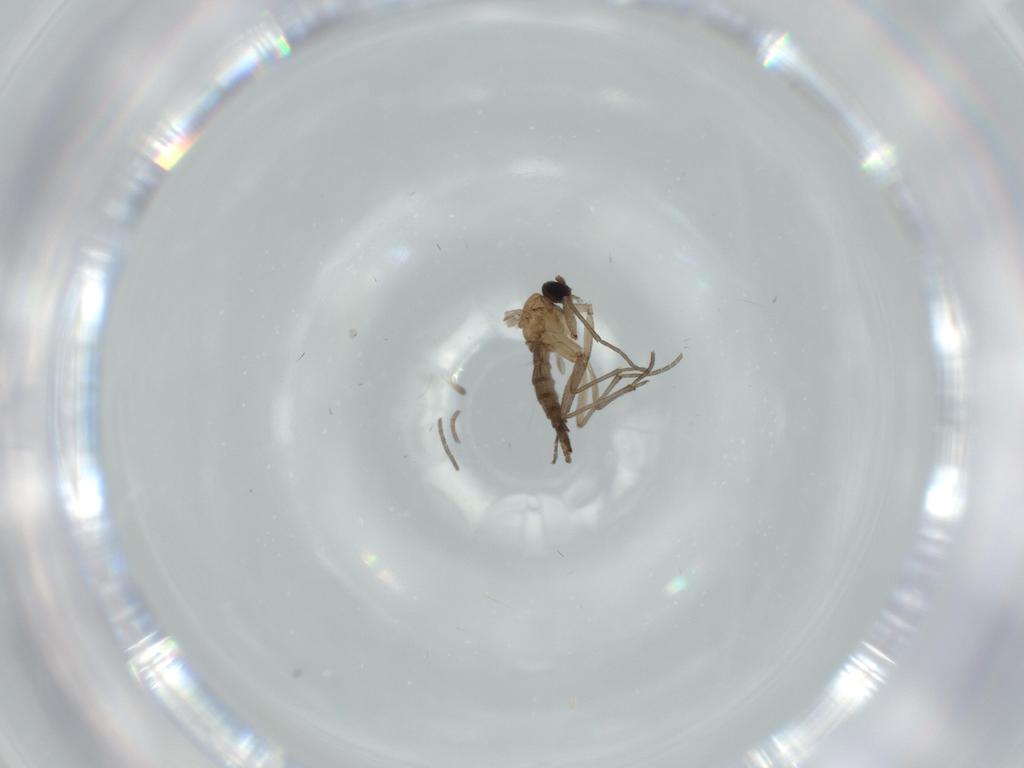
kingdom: Animalia
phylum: Arthropoda
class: Insecta
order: Diptera
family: Sciaridae
